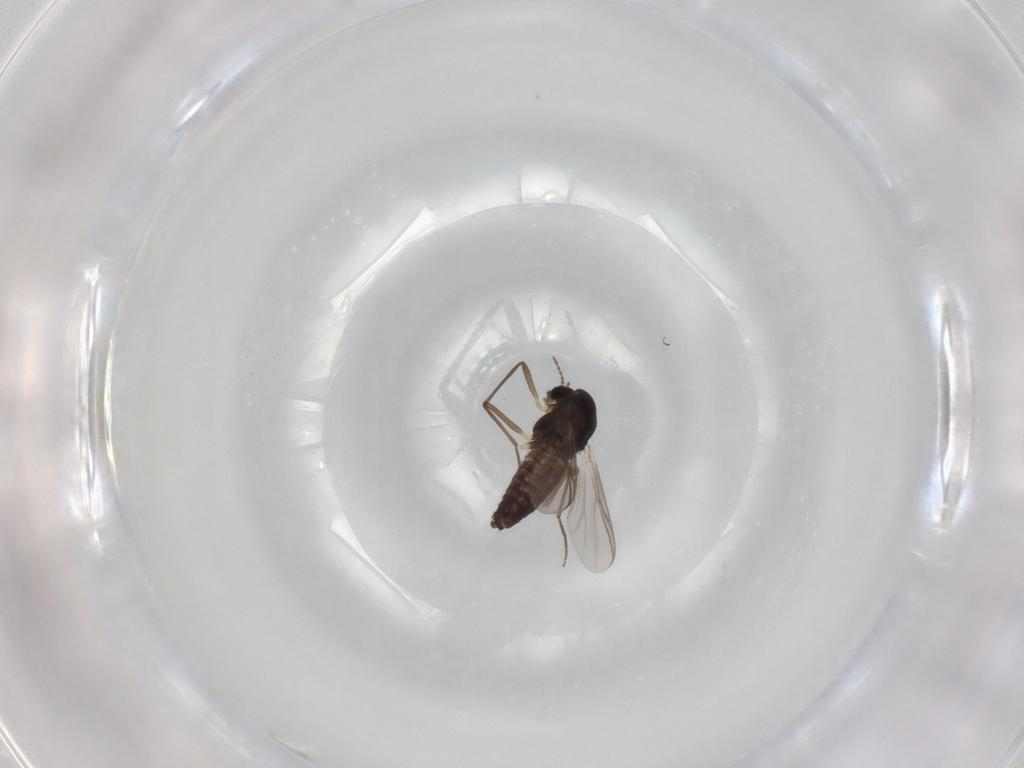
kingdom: Animalia
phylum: Arthropoda
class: Insecta
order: Diptera
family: Chironomidae
